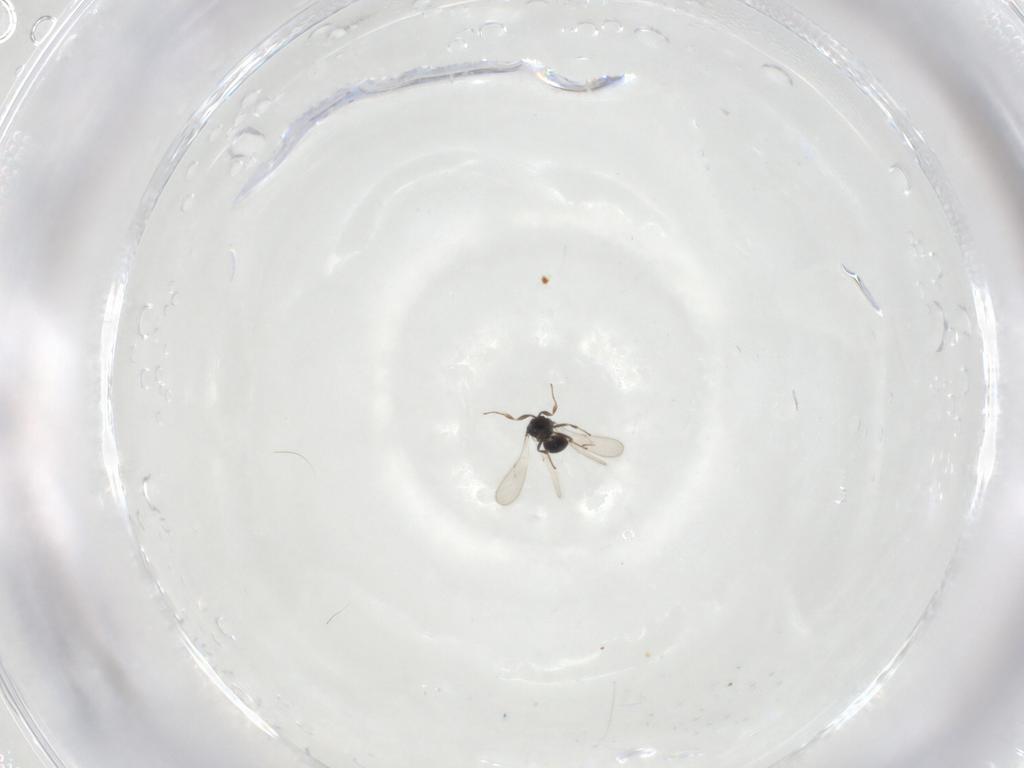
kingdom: Animalia
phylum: Arthropoda
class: Insecta
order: Hymenoptera
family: Scelionidae
